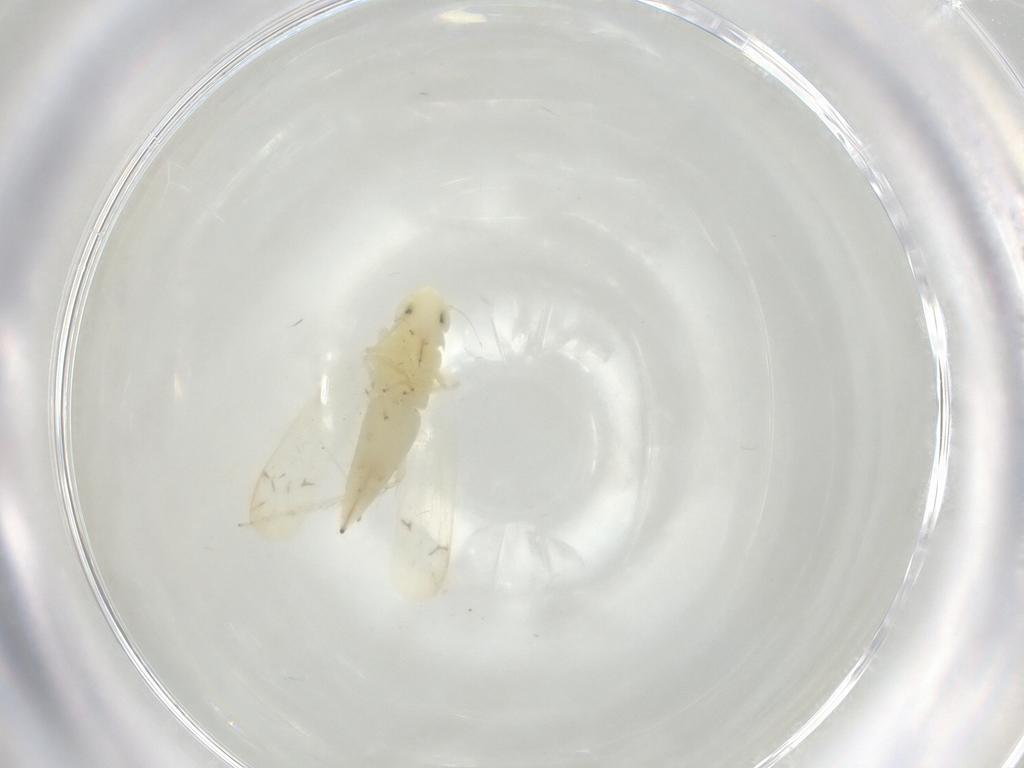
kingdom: Animalia
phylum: Arthropoda
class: Insecta
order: Hemiptera
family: Cicadellidae
